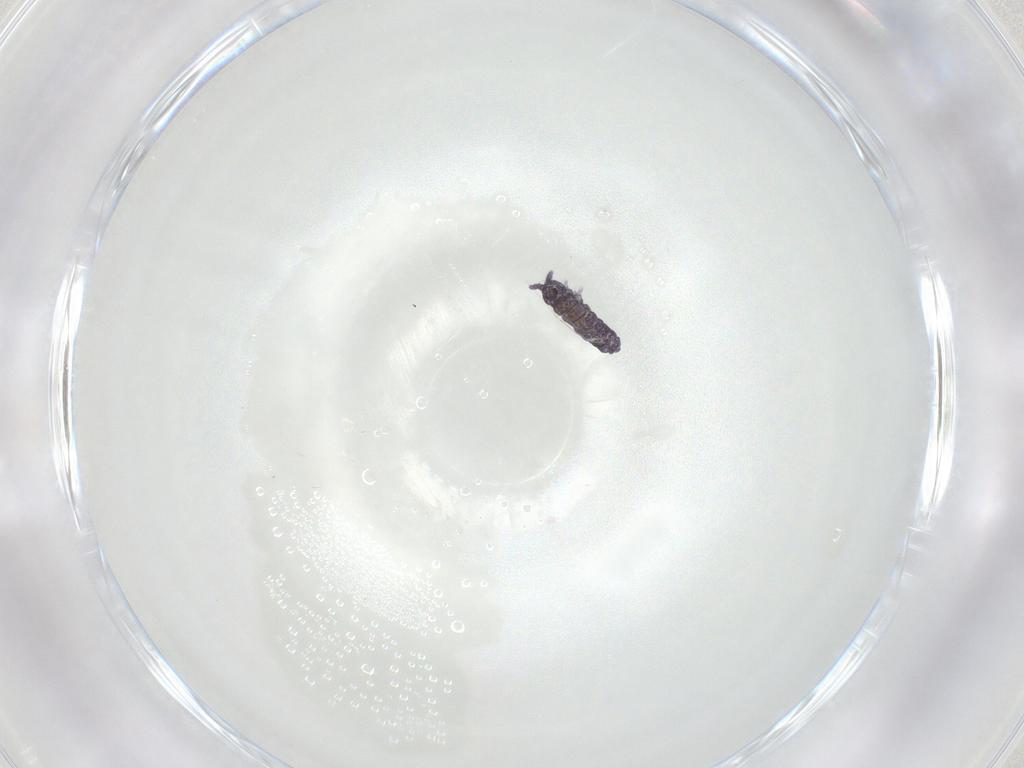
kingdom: Animalia
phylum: Arthropoda
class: Collembola
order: Poduromorpha
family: Brachystomellidae
